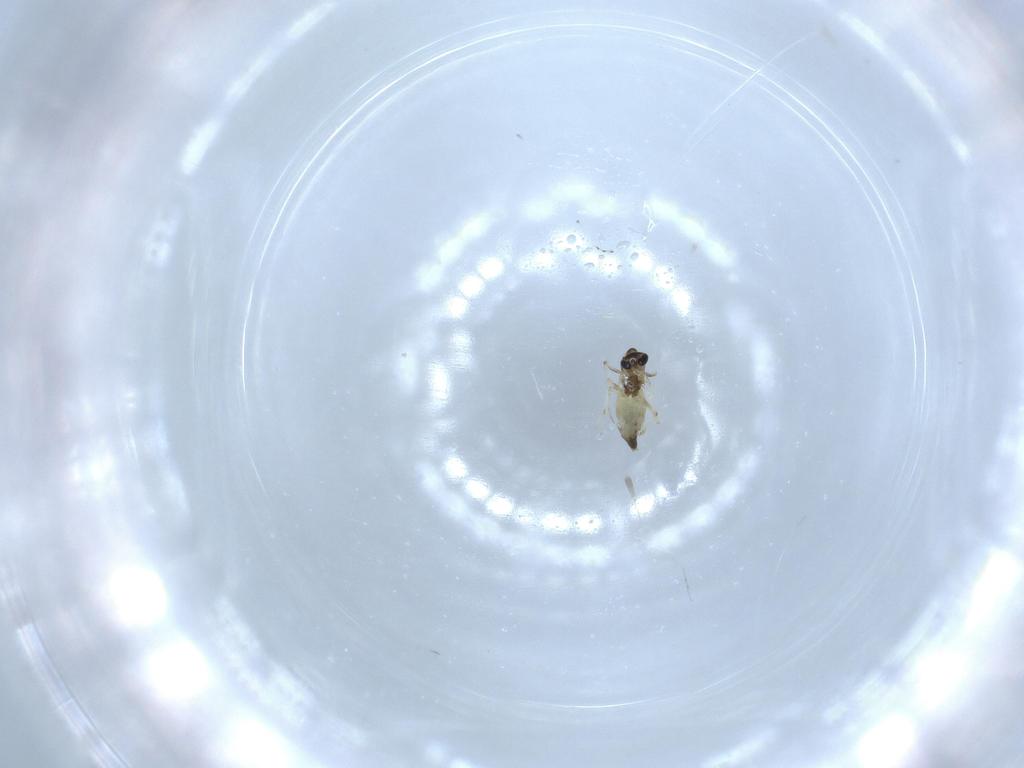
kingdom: Animalia
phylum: Arthropoda
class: Insecta
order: Diptera
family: Chironomidae
